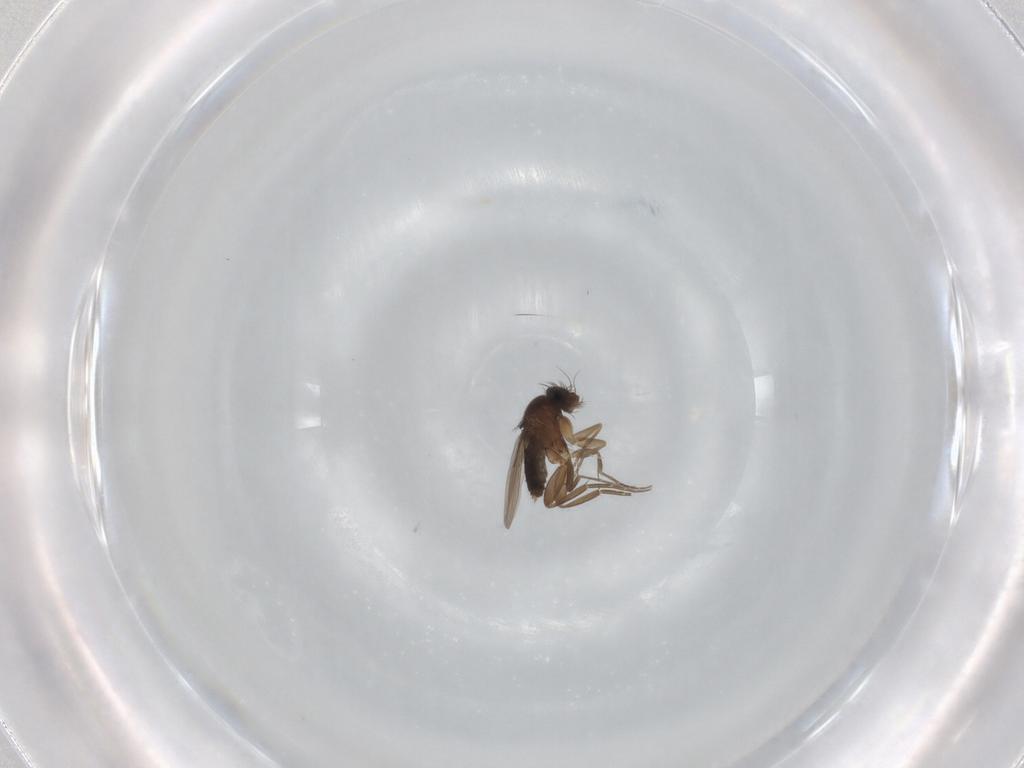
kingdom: Animalia
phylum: Arthropoda
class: Insecta
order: Diptera
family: Phoridae
